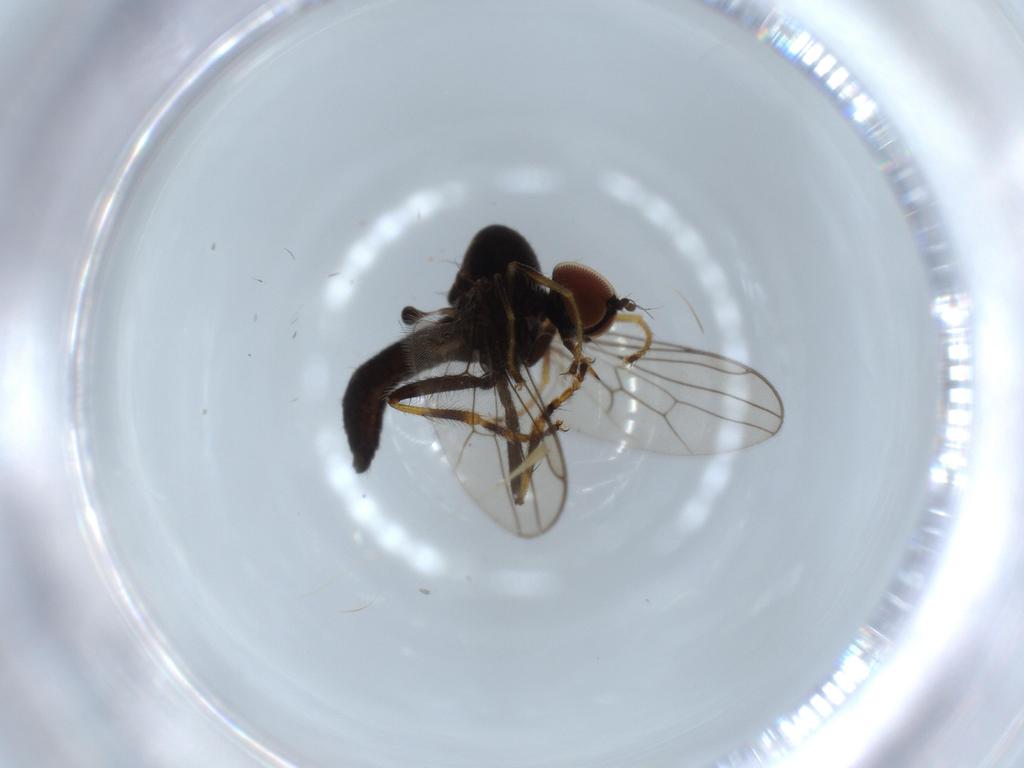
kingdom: Animalia
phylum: Arthropoda
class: Insecta
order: Diptera
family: Hybotidae
